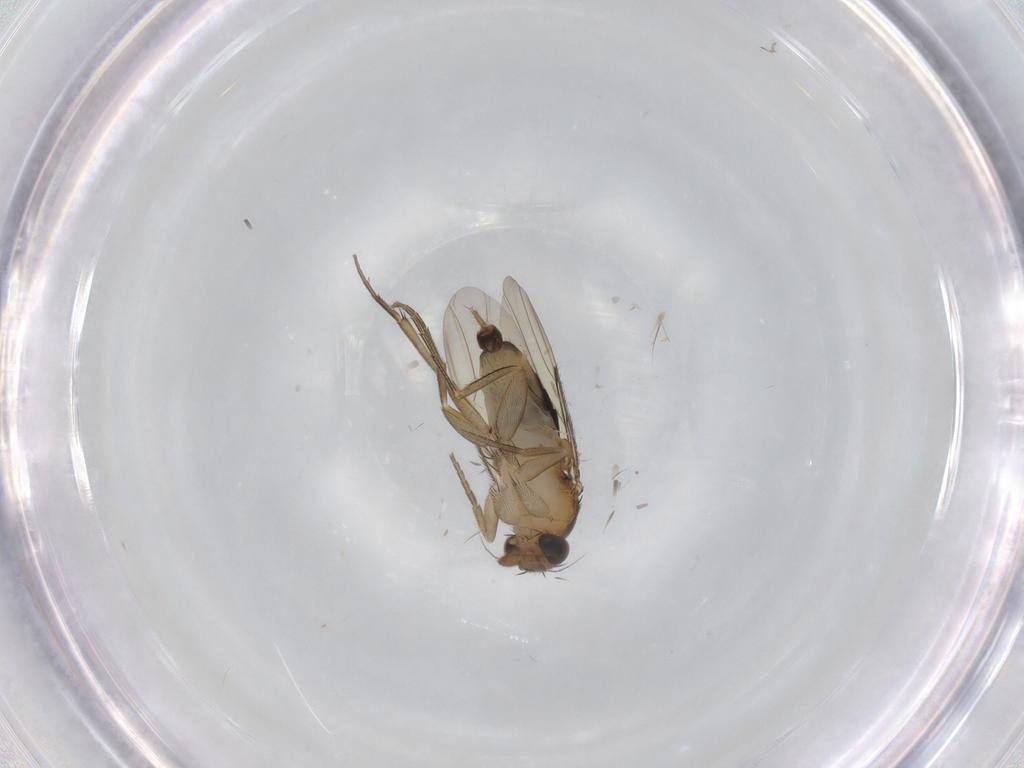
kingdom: Animalia
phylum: Arthropoda
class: Insecta
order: Diptera
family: Phoridae
